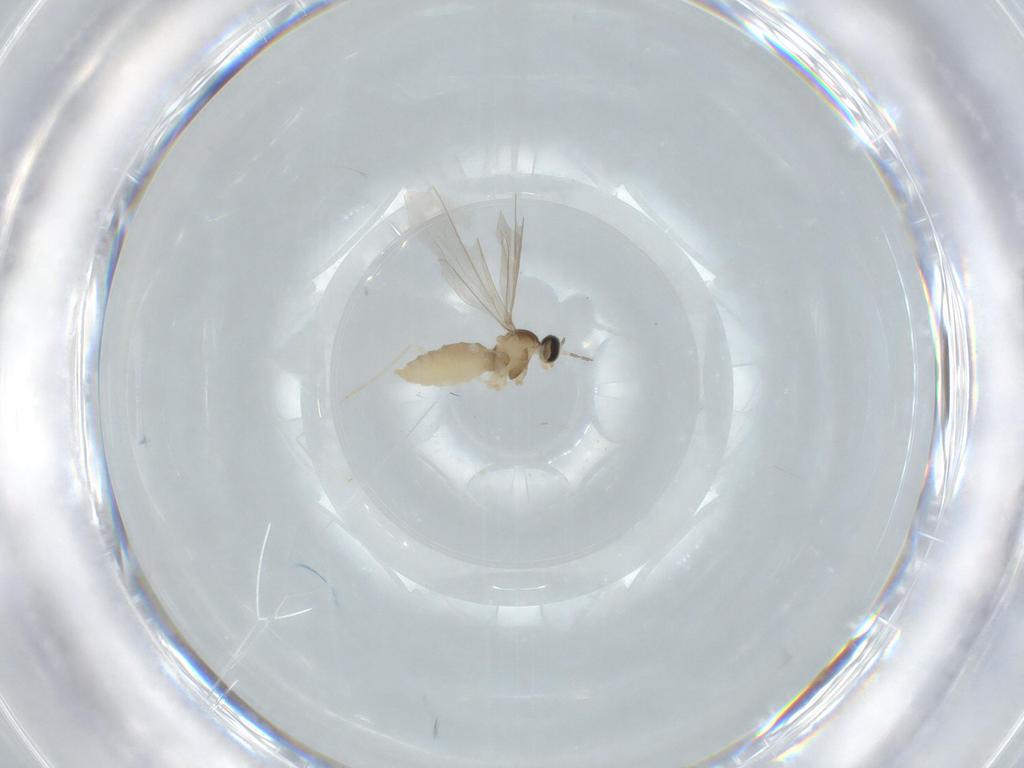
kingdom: Animalia
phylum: Arthropoda
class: Insecta
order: Diptera
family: Cecidomyiidae
